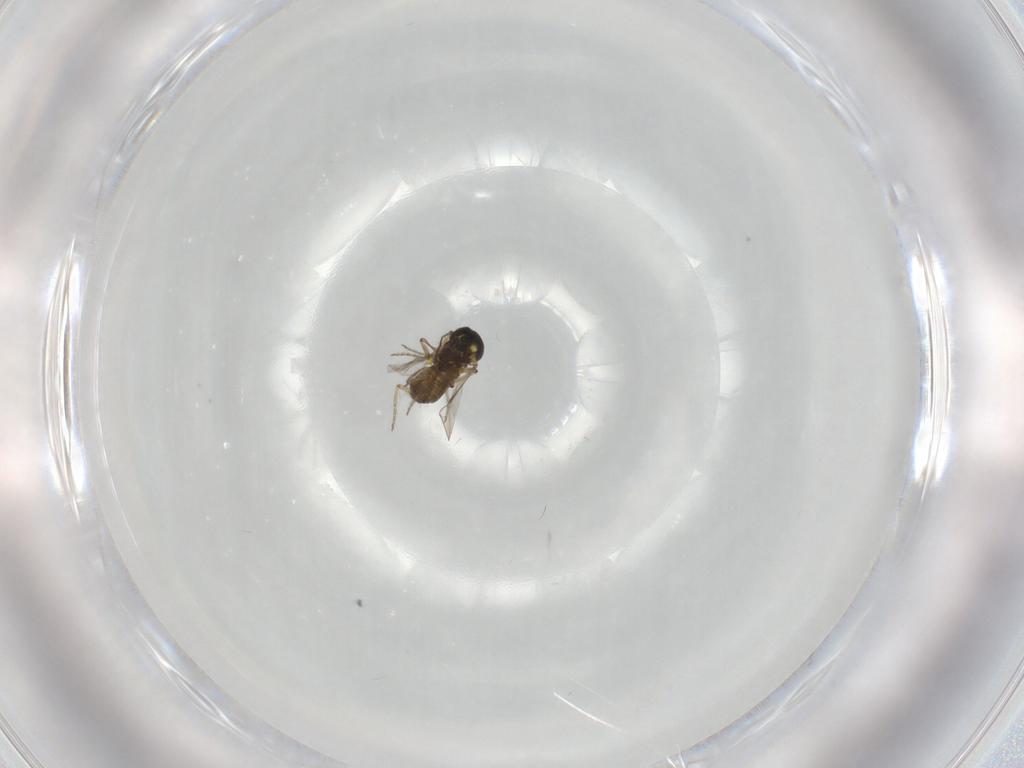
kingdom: Animalia
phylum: Arthropoda
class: Insecta
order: Diptera
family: Ceratopogonidae
